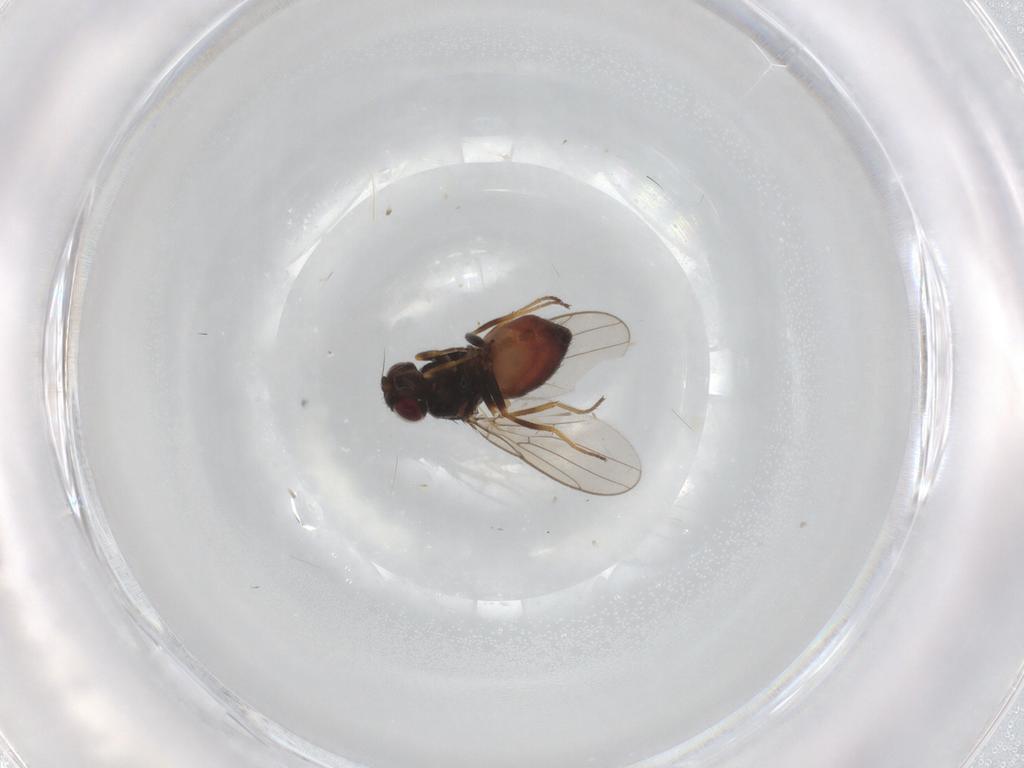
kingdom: Animalia
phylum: Arthropoda
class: Insecta
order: Diptera
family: Chloropidae
